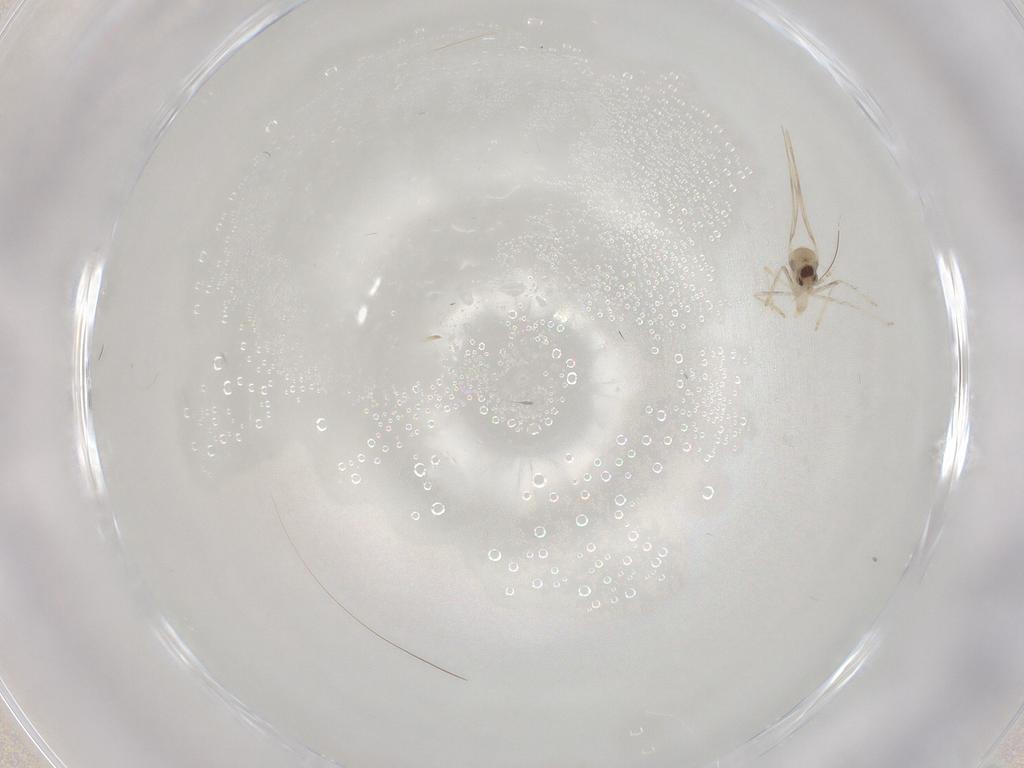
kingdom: Animalia
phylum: Arthropoda
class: Insecta
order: Diptera
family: Cecidomyiidae
